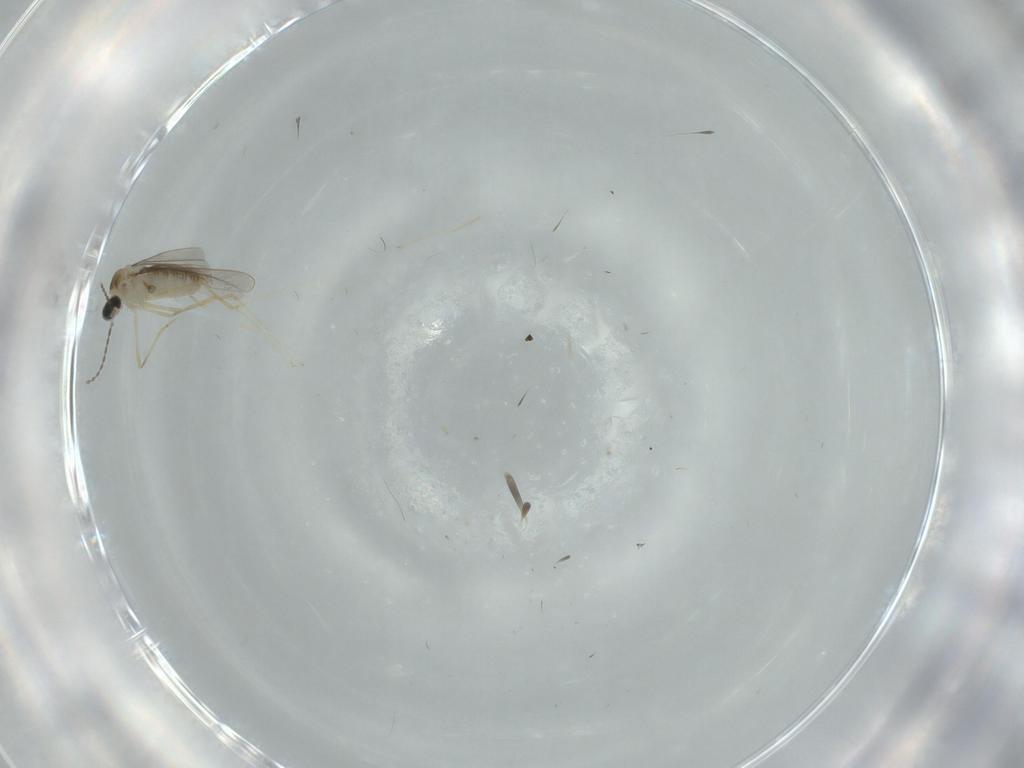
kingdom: Animalia
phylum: Arthropoda
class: Insecta
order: Diptera
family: Cecidomyiidae
